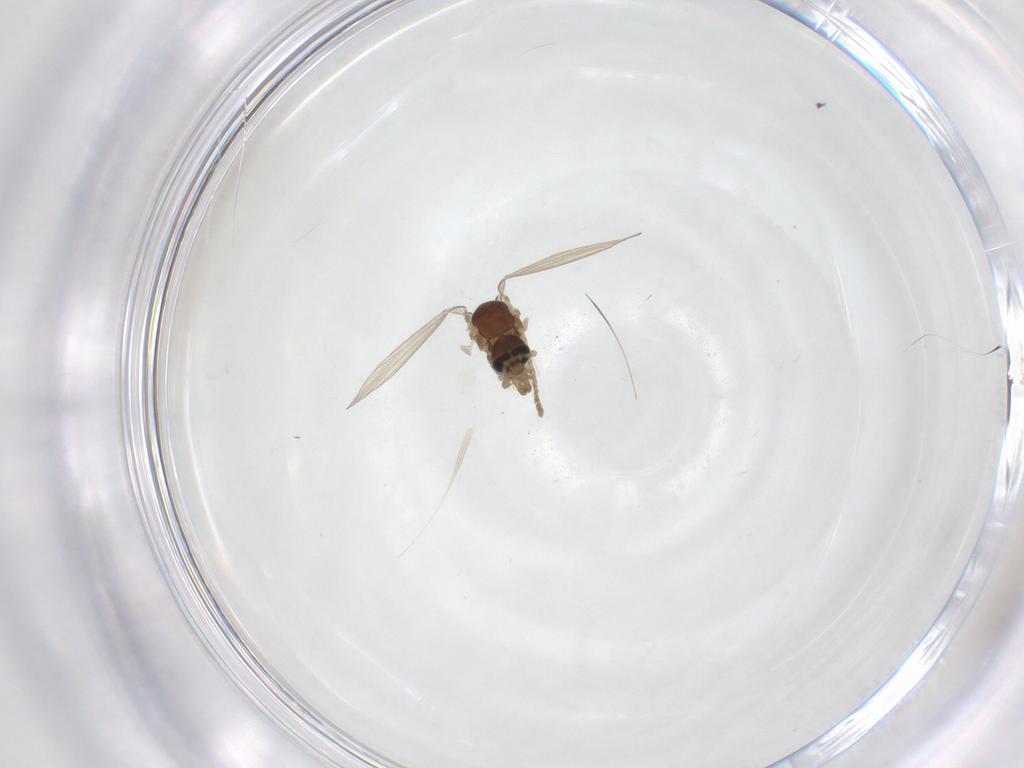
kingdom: Animalia
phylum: Arthropoda
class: Insecta
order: Diptera
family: Psychodidae
